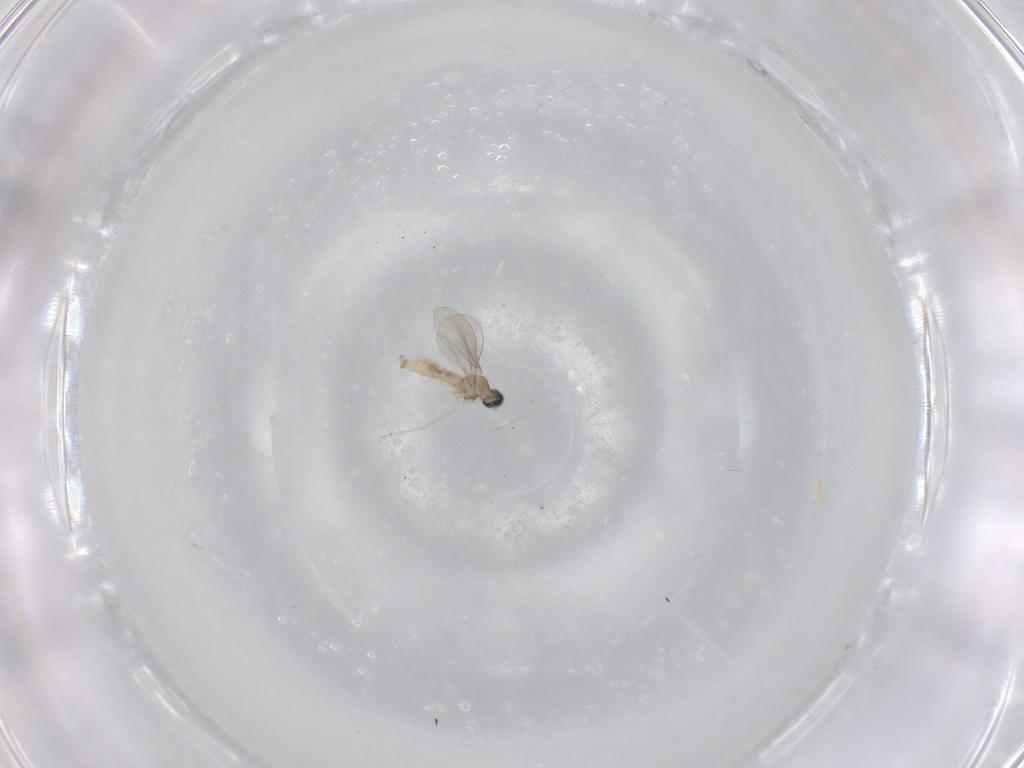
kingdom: Animalia
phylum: Arthropoda
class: Insecta
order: Diptera
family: Cecidomyiidae
